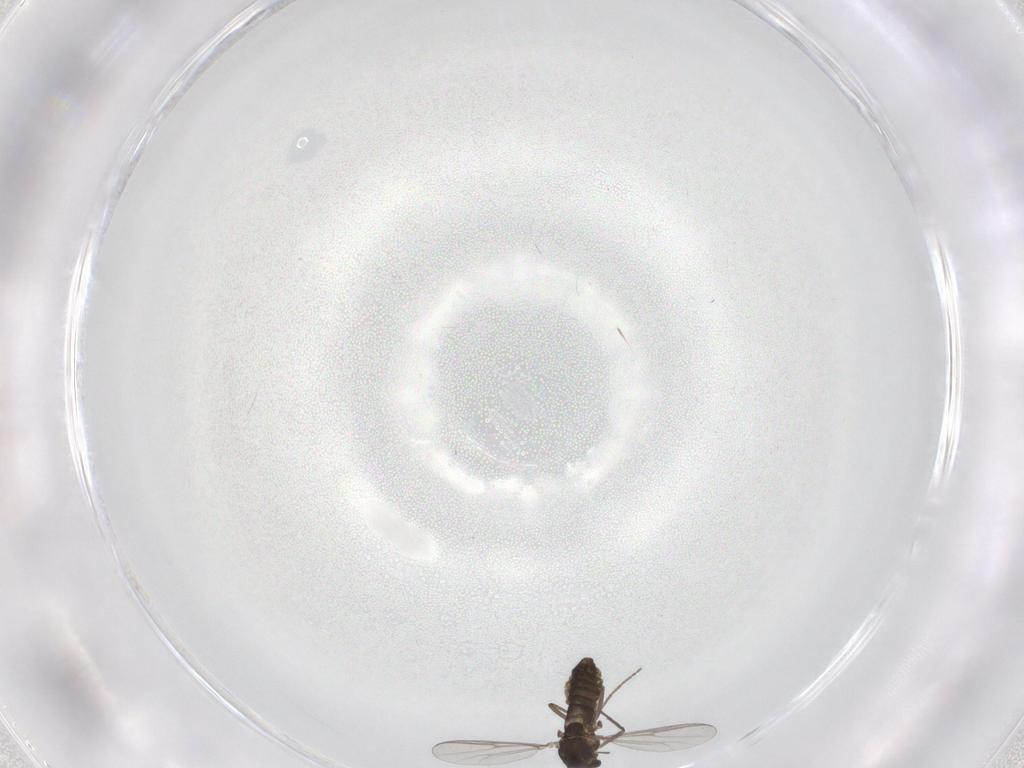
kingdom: Animalia
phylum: Arthropoda
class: Insecta
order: Diptera
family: Chironomidae
